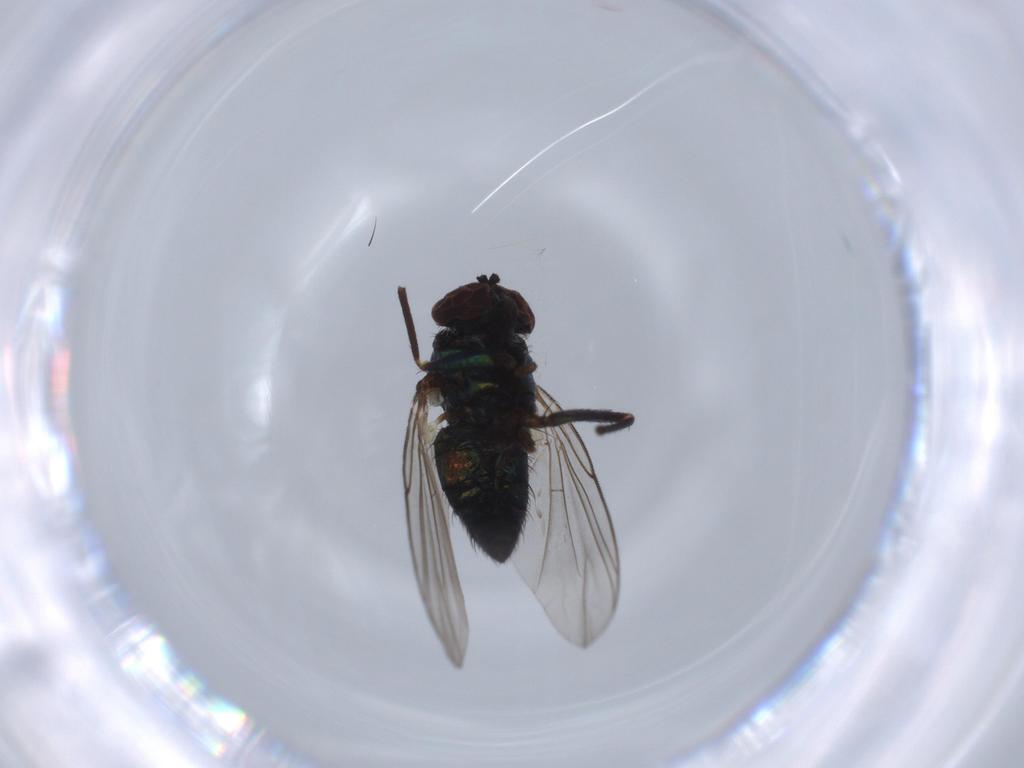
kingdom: Animalia
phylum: Arthropoda
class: Insecta
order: Diptera
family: Dolichopodidae
